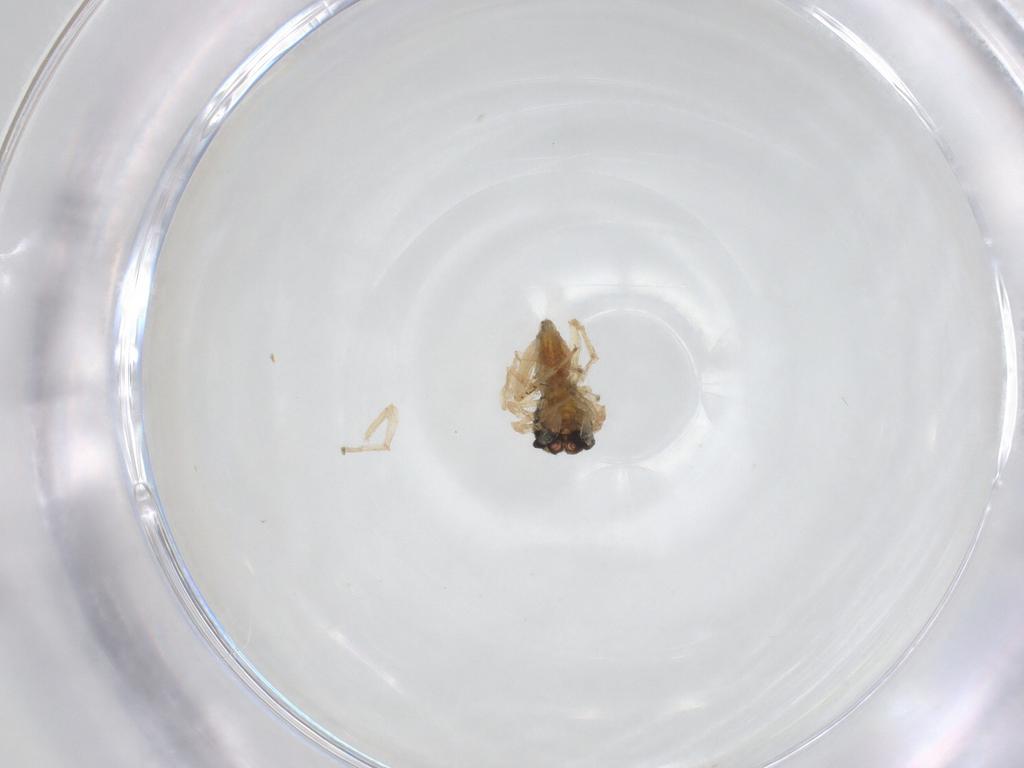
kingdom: Animalia
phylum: Arthropoda
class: Arachnida
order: Araneae
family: Salticidae
